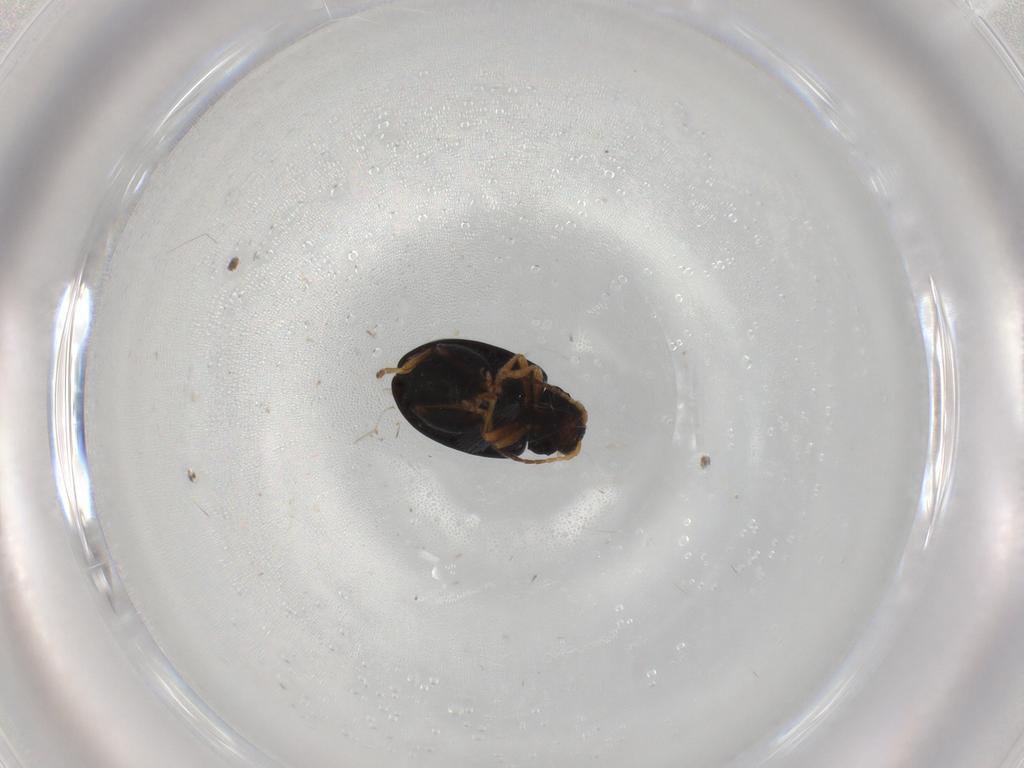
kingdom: Animalia
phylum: Arthropoda
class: Insecta
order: Coleoptera
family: Chrysomelidae
